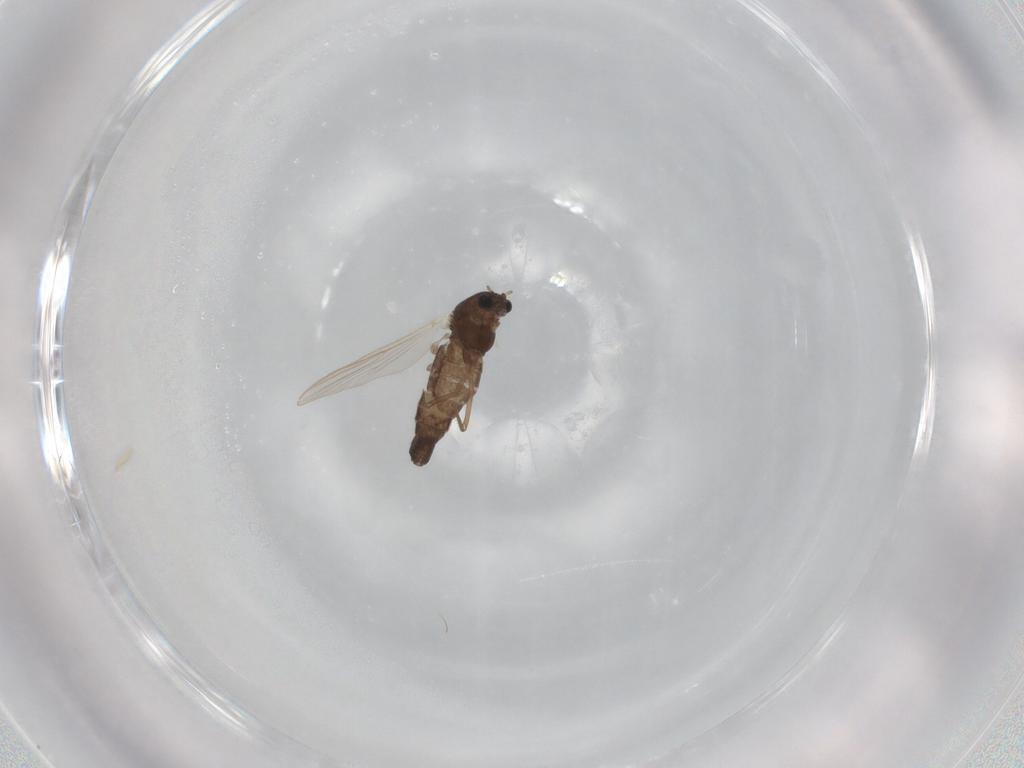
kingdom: Animalia
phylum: Arthropoda
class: Insecta
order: Diptera
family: Chironomidae
